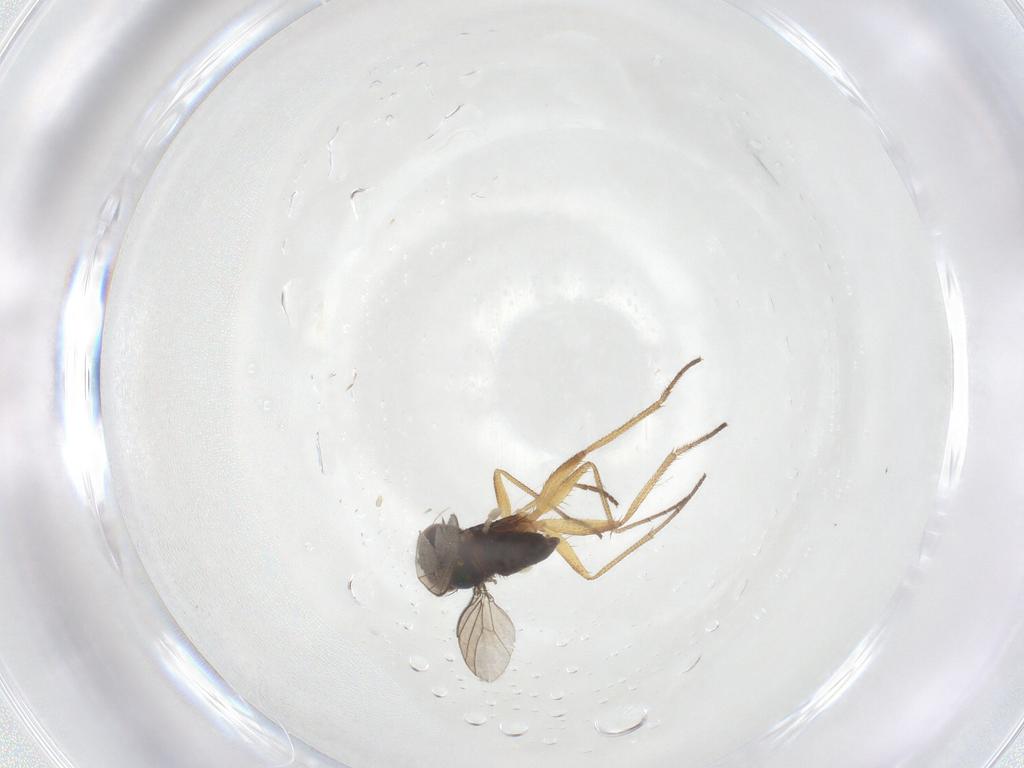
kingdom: Animalia
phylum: Arthropoda
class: Insecta
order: Diptera
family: Dolichopodidae
